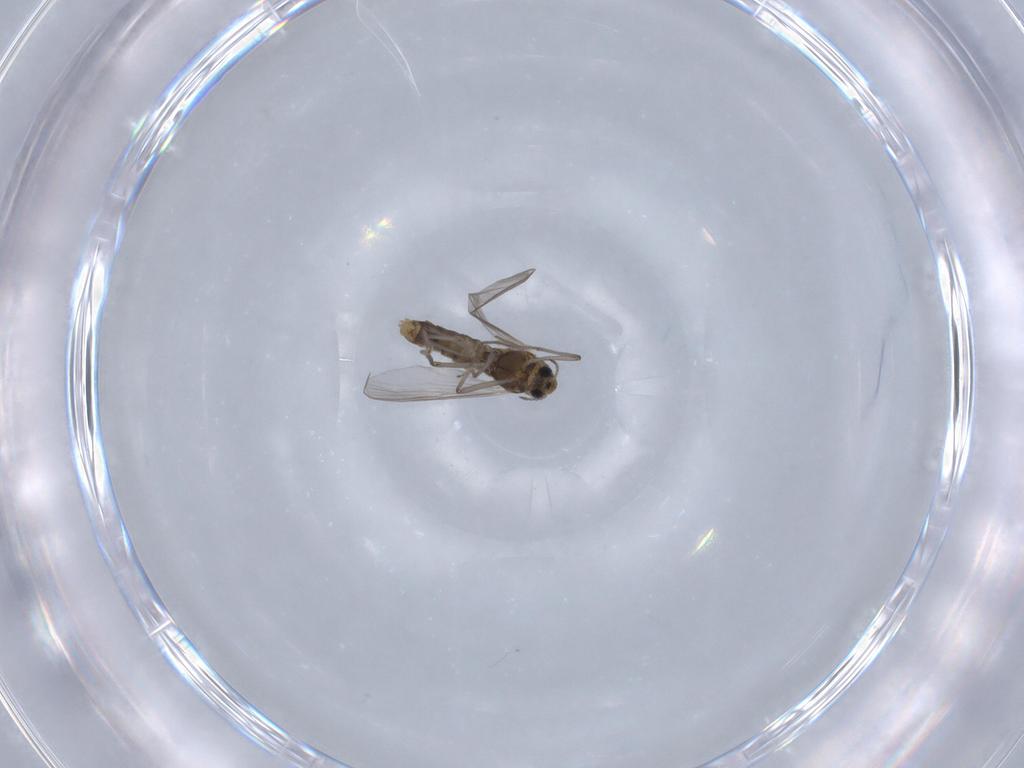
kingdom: Animalia
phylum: Arthropoda
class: Insecta
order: Diptera
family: Chironomidae
